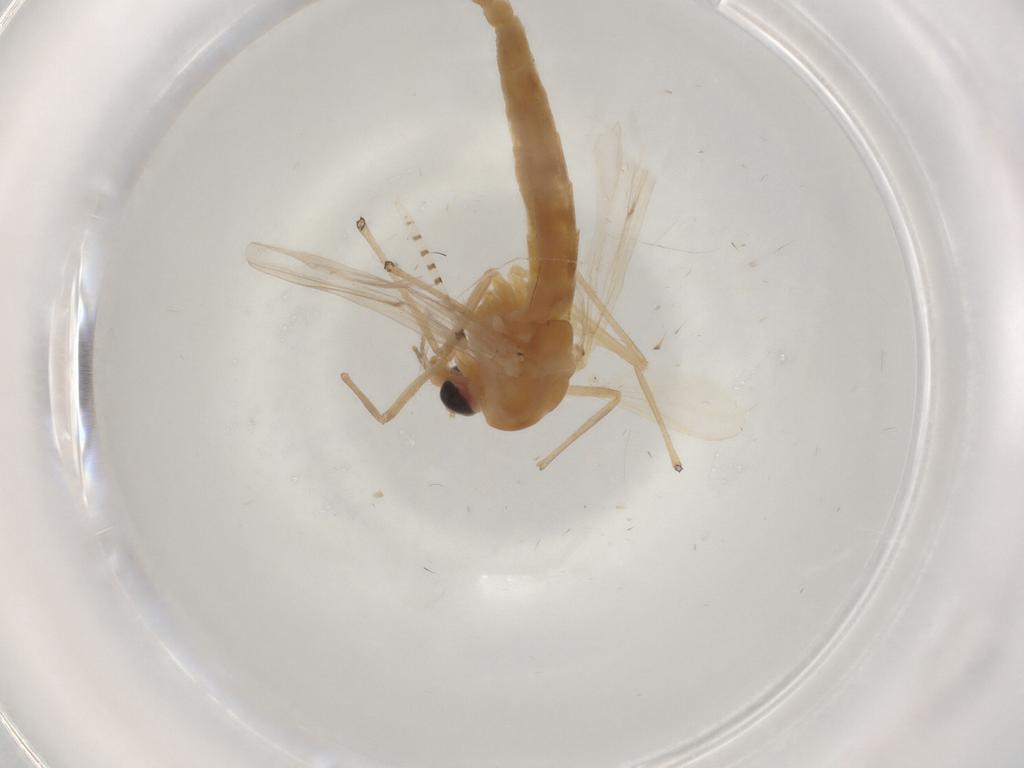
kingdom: Animalia
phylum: Arthropoda
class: Insecta
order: Diptera
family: Chironomidae
